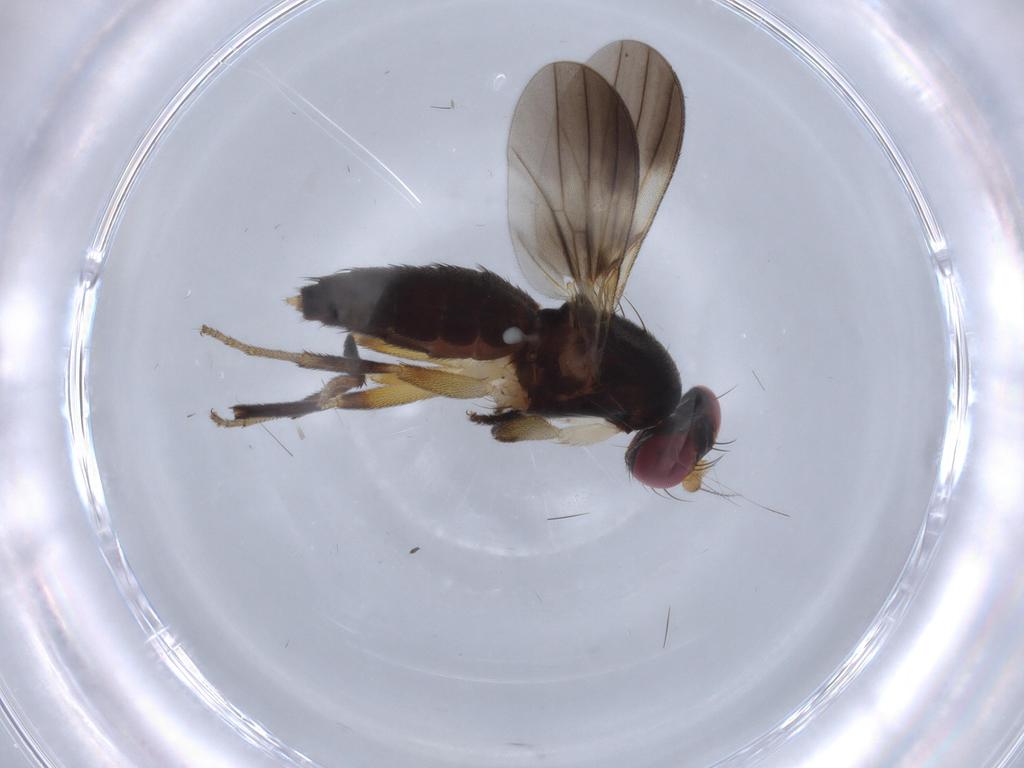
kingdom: Animalia
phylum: Arthropoda
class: Insecta
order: Diptera
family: Clusiidae
